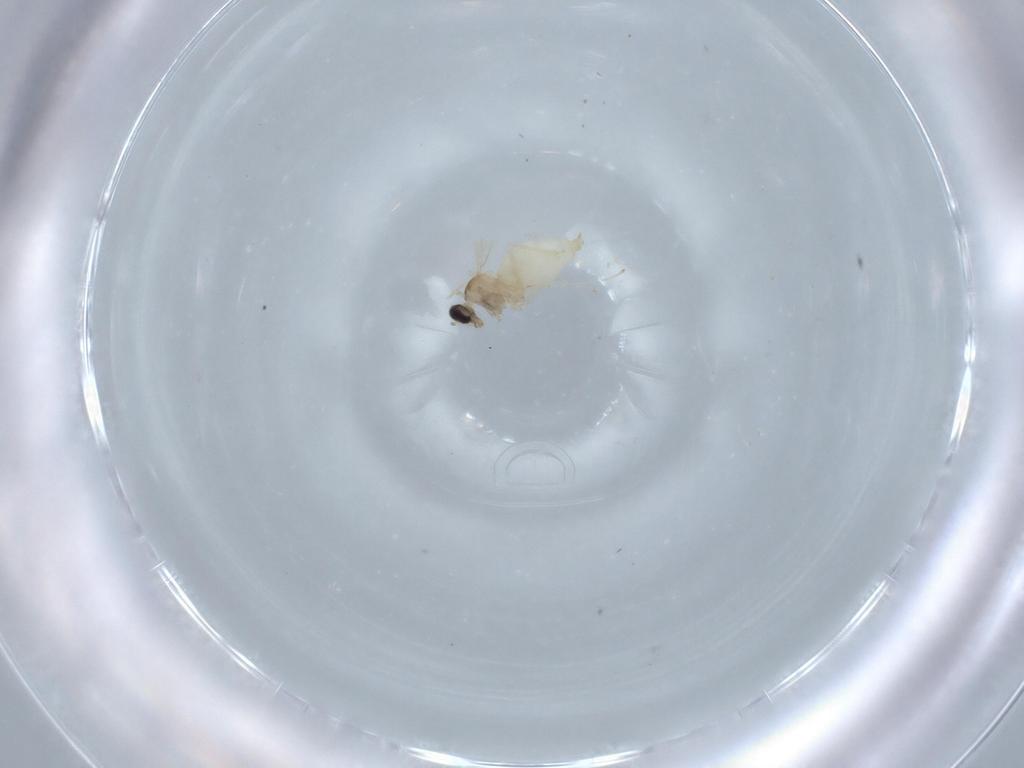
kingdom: Animalia
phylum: Arthropoda
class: Insecta
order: Diptera
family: Cecidomyiidae
